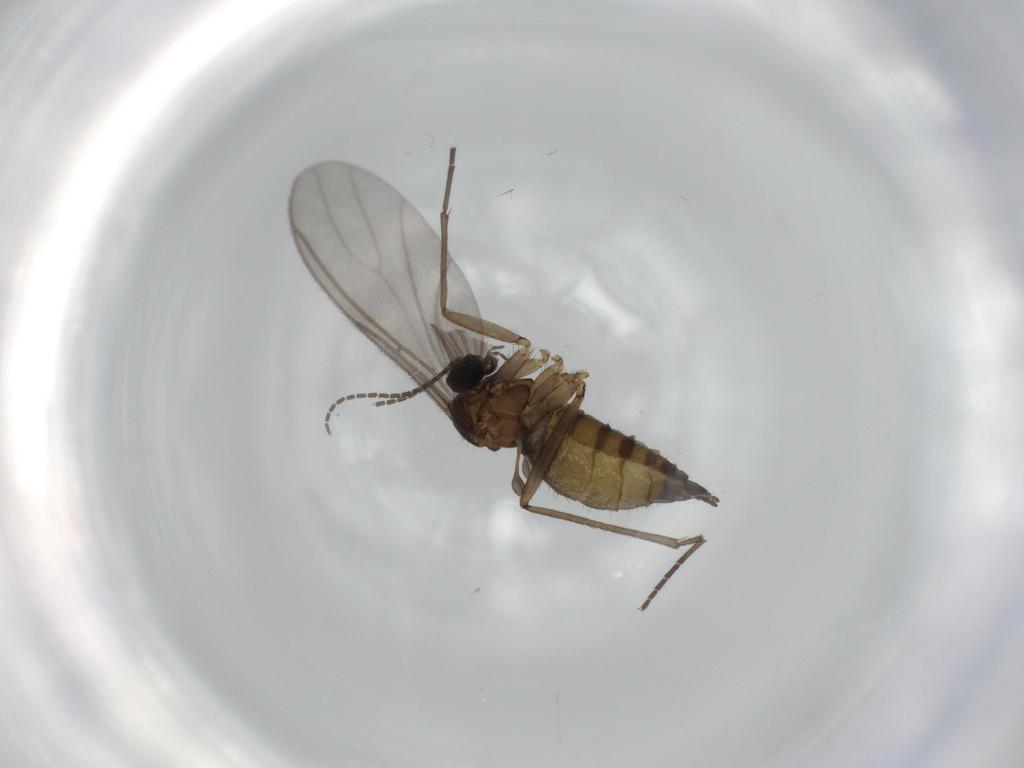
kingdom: Animalia
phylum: Arthropoda
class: Insecta
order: Diptera
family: Sciaridae
